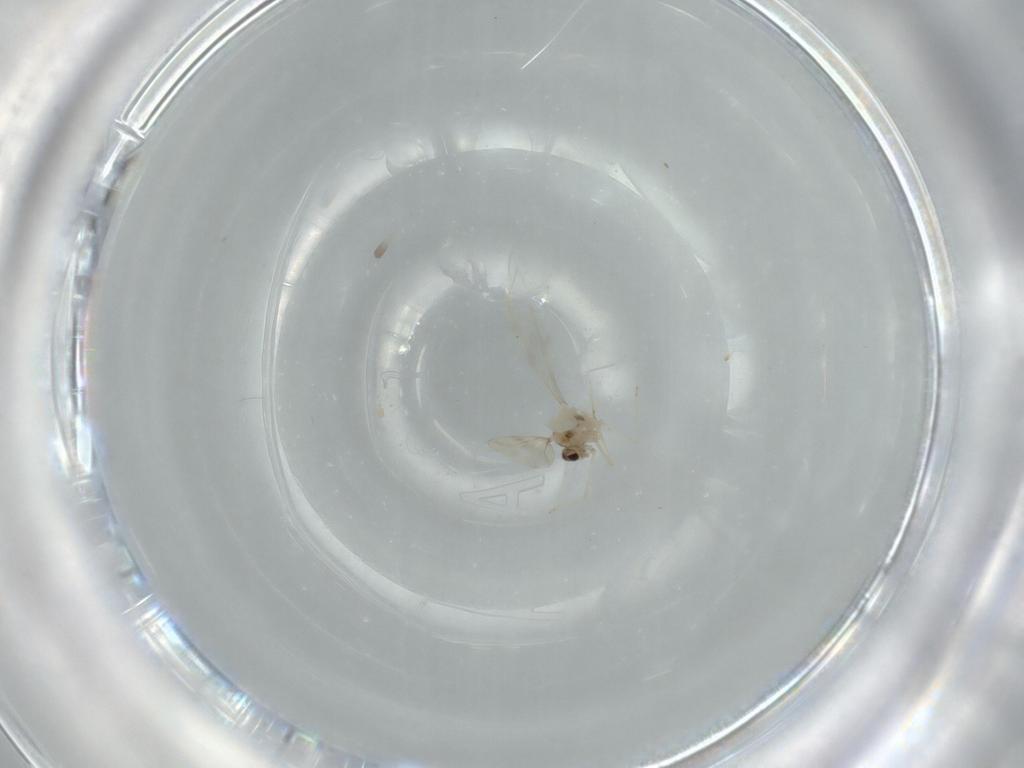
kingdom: Animalia
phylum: Arthropoda
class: Insecta
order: Diptera
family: Cecidomyiidae
